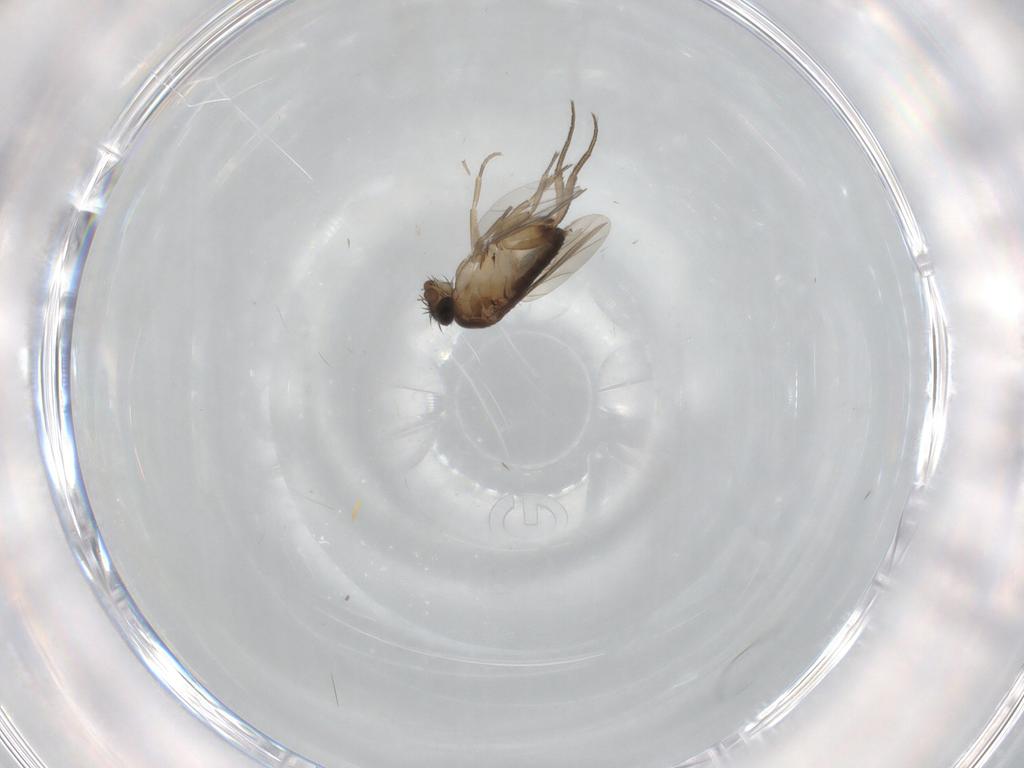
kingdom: Animalia
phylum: Arthropoda
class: Insecta
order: Diptera
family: Phoridae
